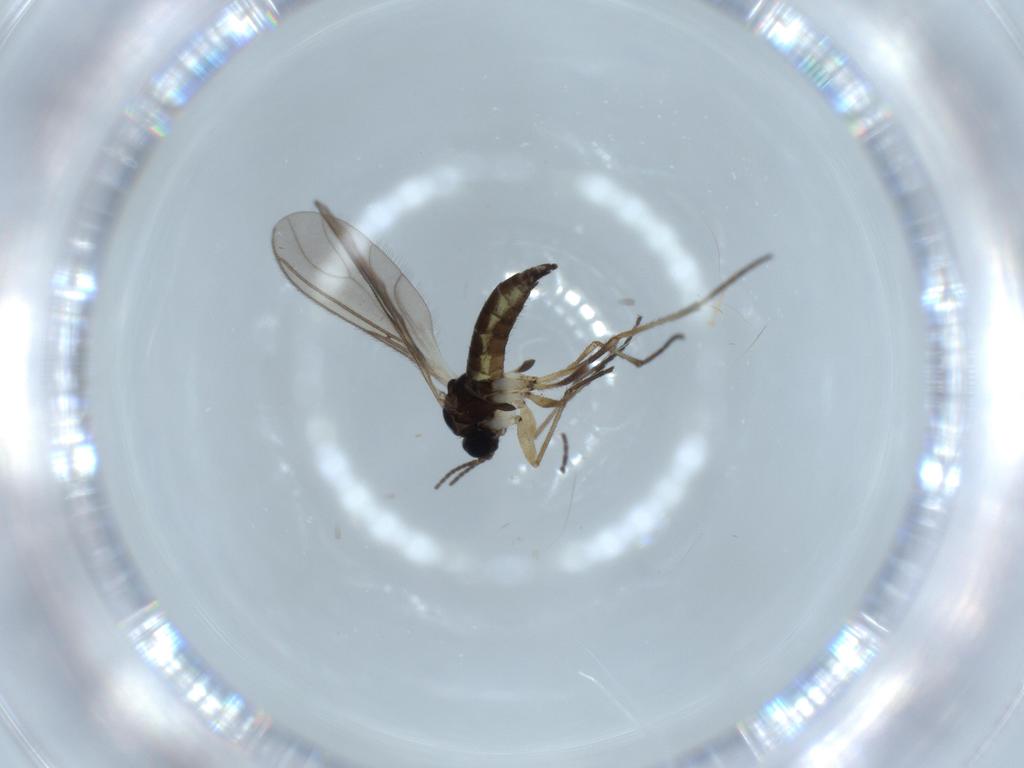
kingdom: Animalia
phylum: Arthropoda
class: Insecta
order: Diptera
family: Sciaridae
